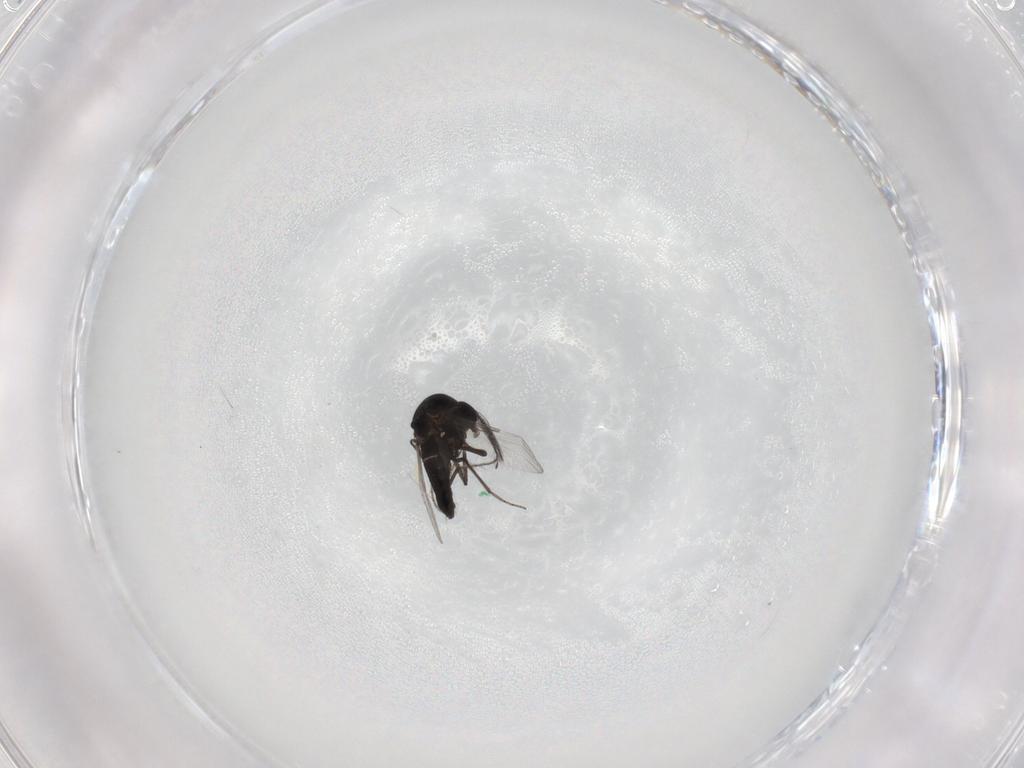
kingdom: Animalia
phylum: Arthropoda
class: Insecta
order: Diptera
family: Ceratopogonidae
